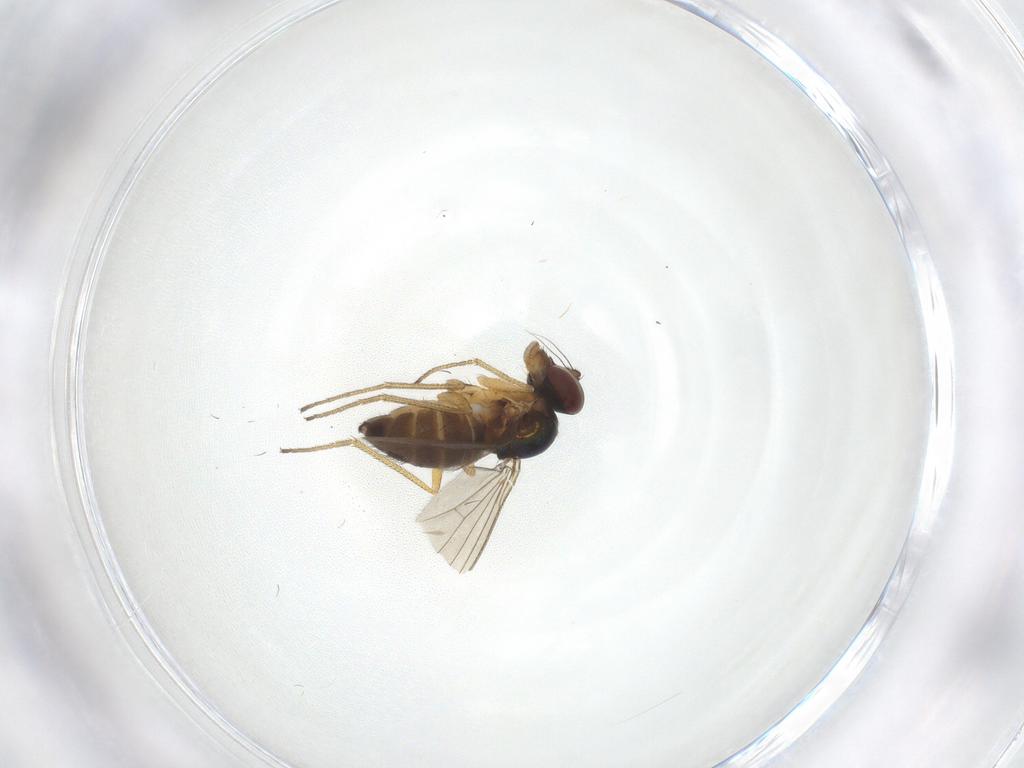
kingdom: Animalia
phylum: Arthropoda
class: Insecta
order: Diptera
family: Dolichopodidae
